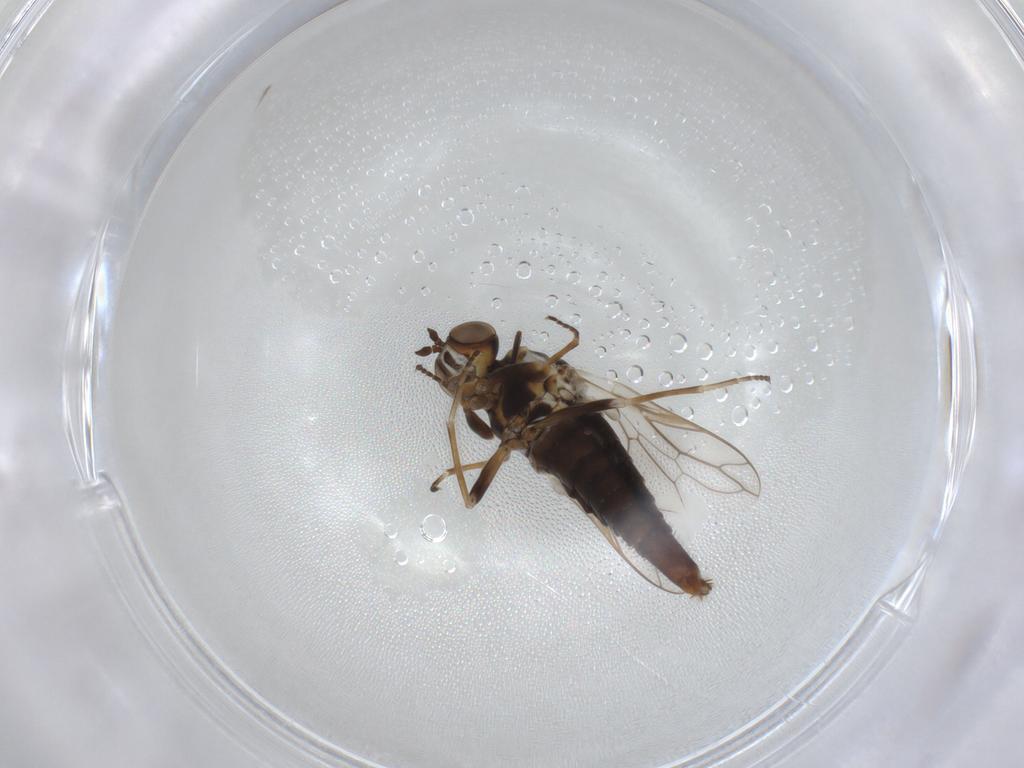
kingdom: Animalia
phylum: Arthropoda
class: Insecta
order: Diptera
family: Scenopinidae
